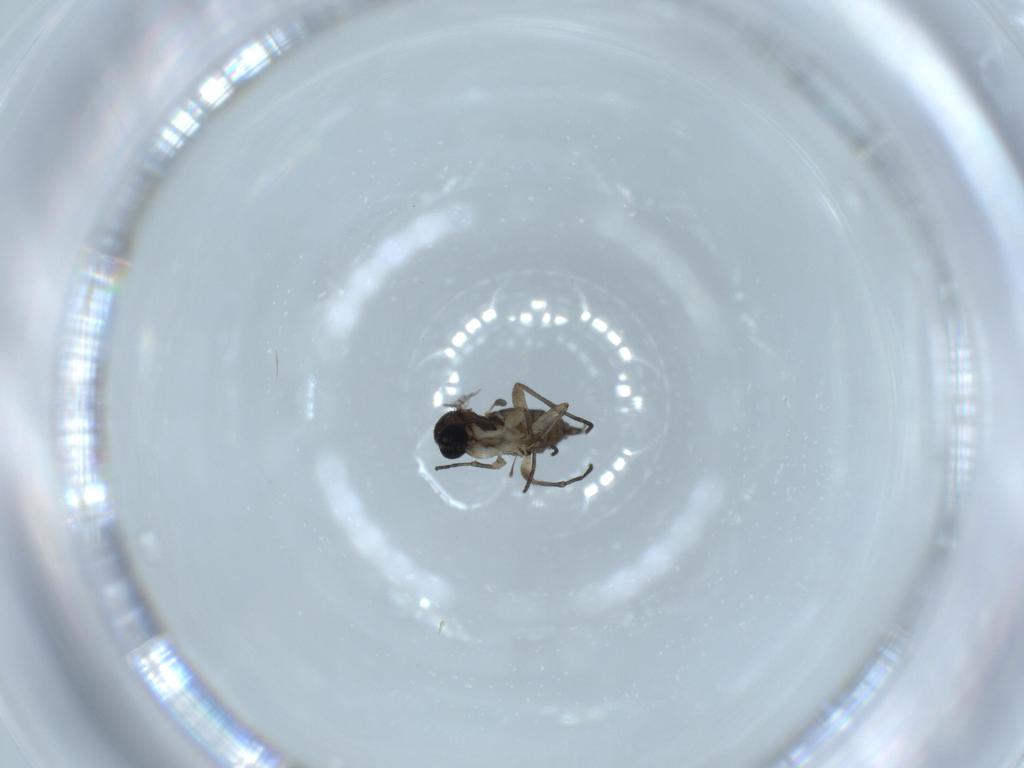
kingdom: Animalia
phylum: Arthropoda
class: Insecta
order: Diptera
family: Sciaridae
